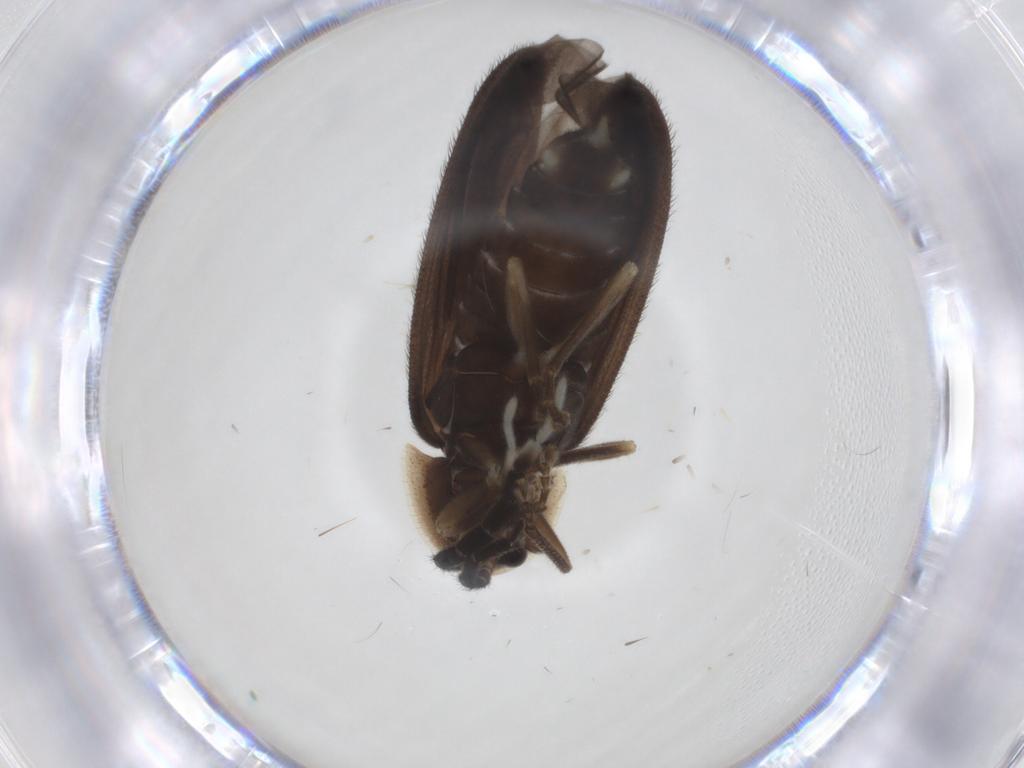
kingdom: Animalia
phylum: Arthropoda
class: Insecta
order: Coleoptera
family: Lampyridae
